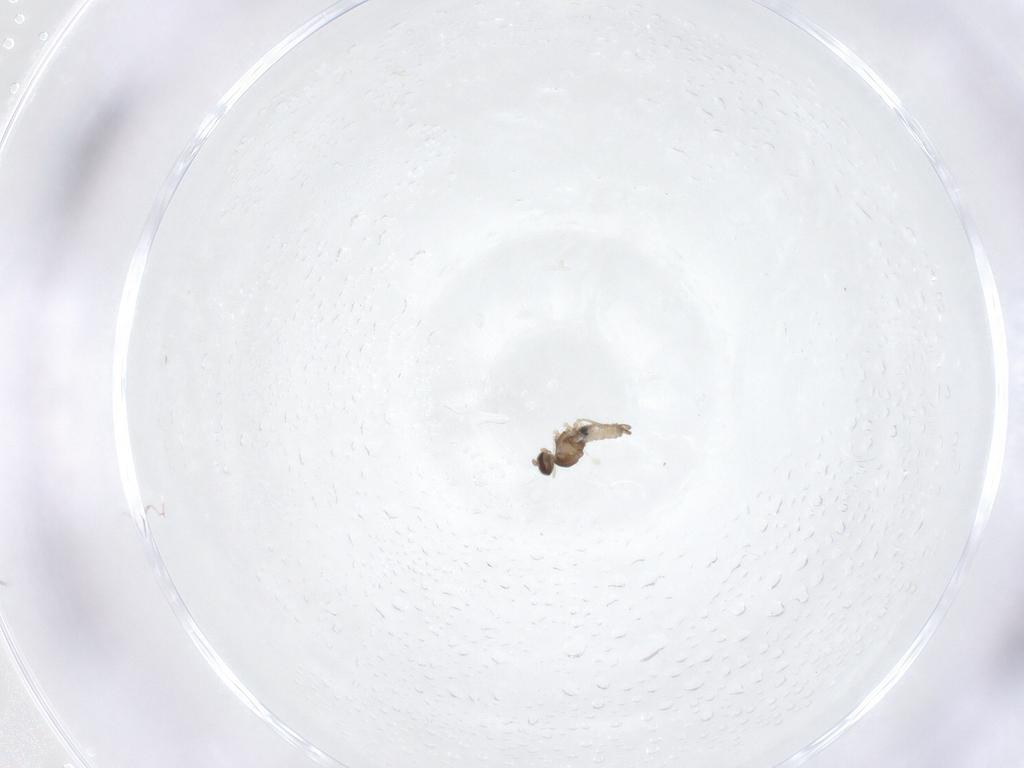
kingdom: Animalia
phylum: Arthropoda
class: Insecta
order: Diptera
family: Cecidomyiidae
